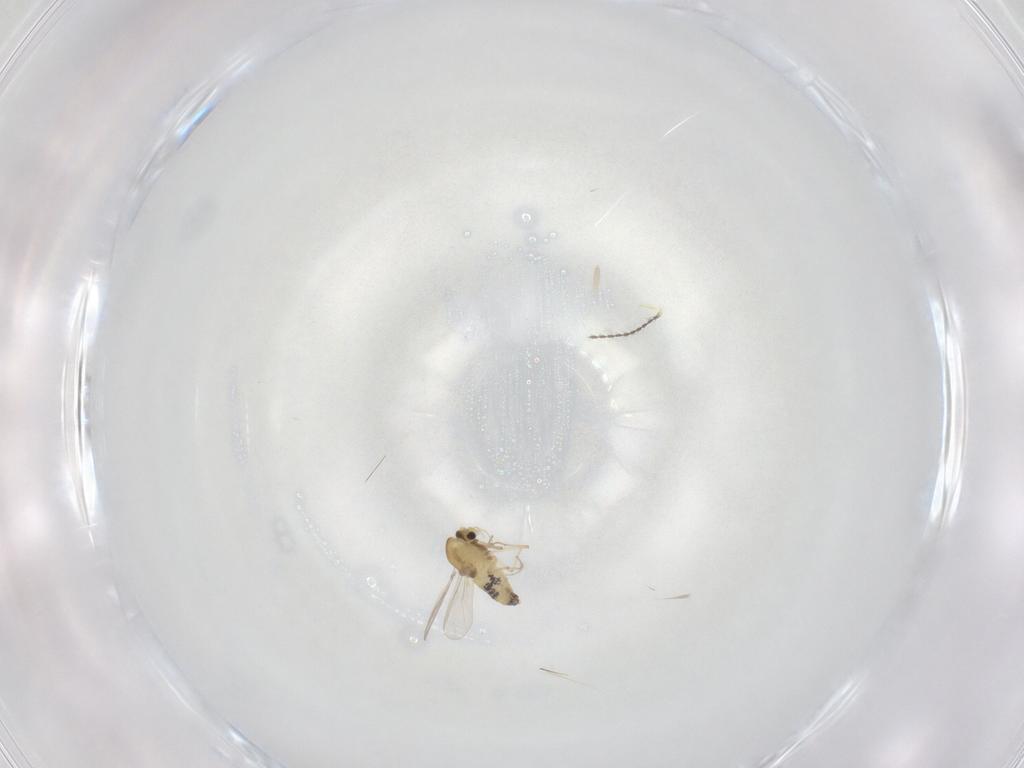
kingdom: Animalia
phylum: Arthropoda
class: Insecta
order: Diptera
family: Chironomidae
